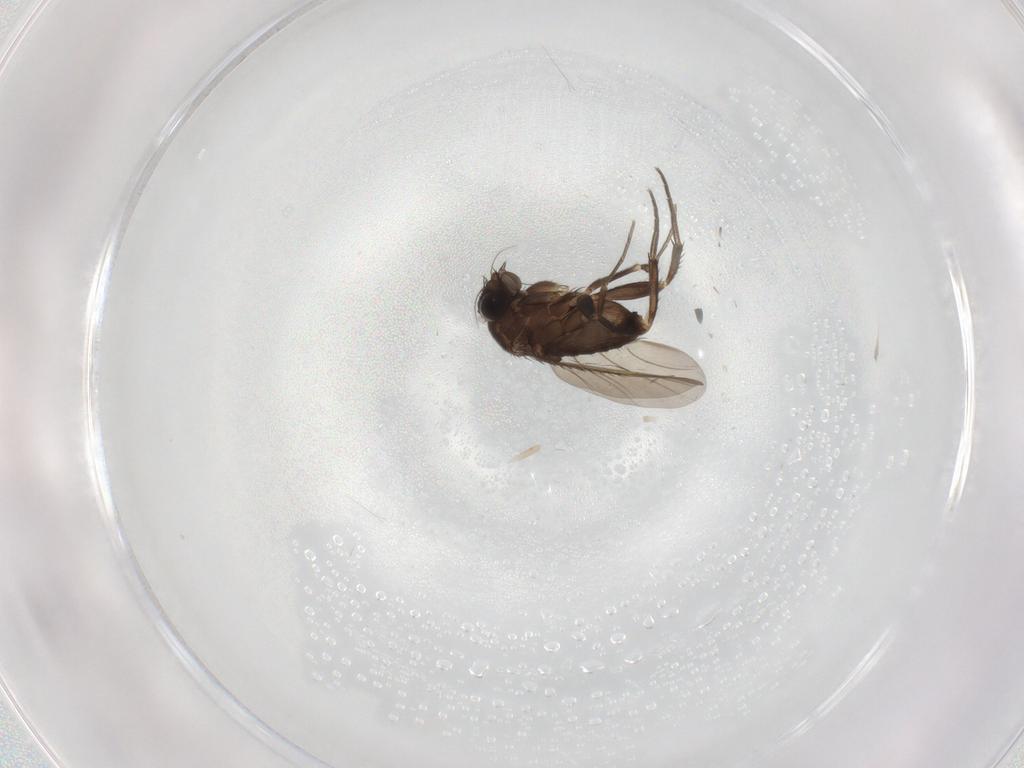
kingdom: Animalia
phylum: Arthropoda
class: Insecta
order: Diptera
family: Phoridae
